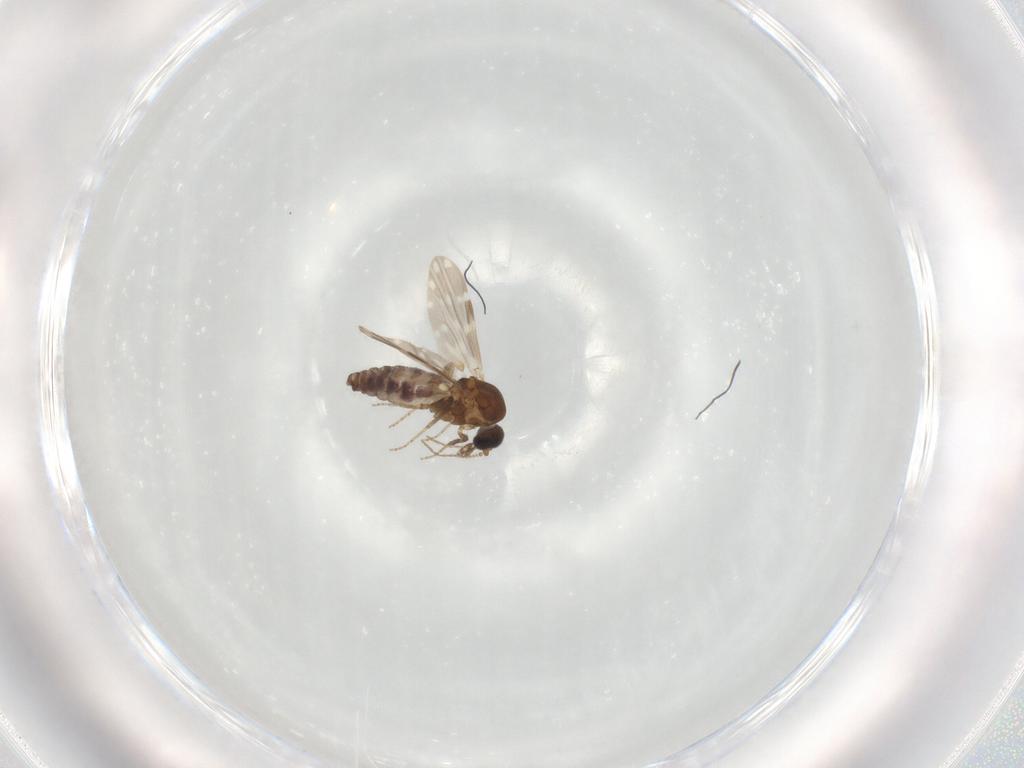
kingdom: Animalia
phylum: Arthropoda
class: Insecta
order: Diptera
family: Ceratopogonidae
